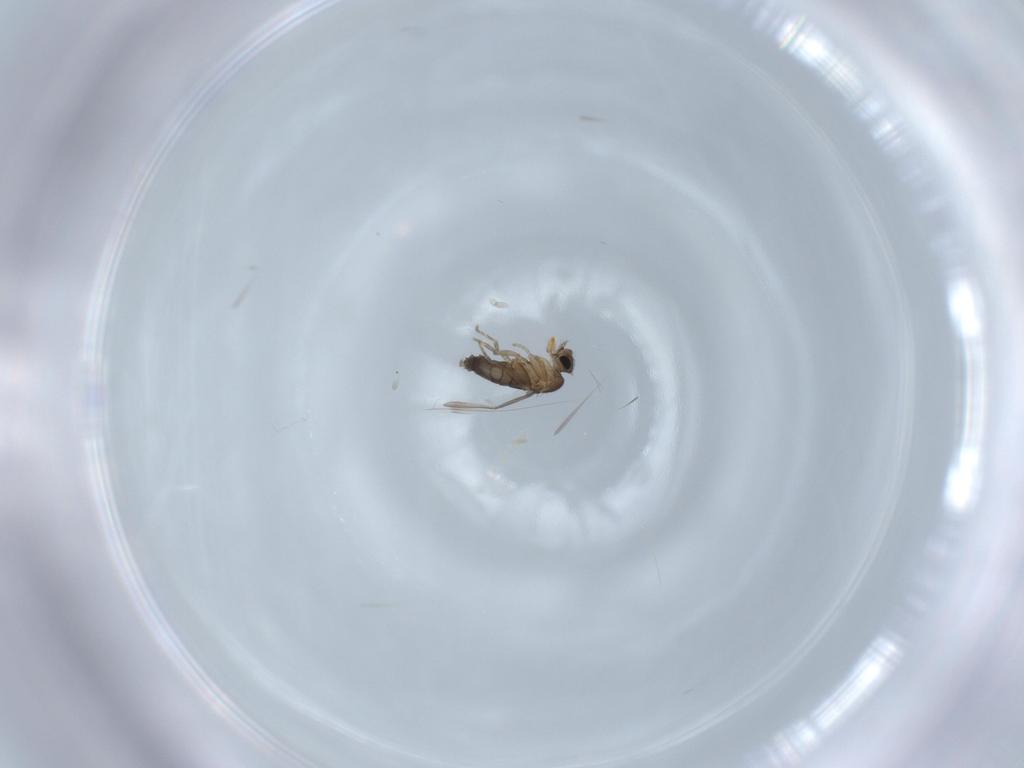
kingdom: Animalia
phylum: Arthropoda
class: Insecta
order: Diptera
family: Phoridae
